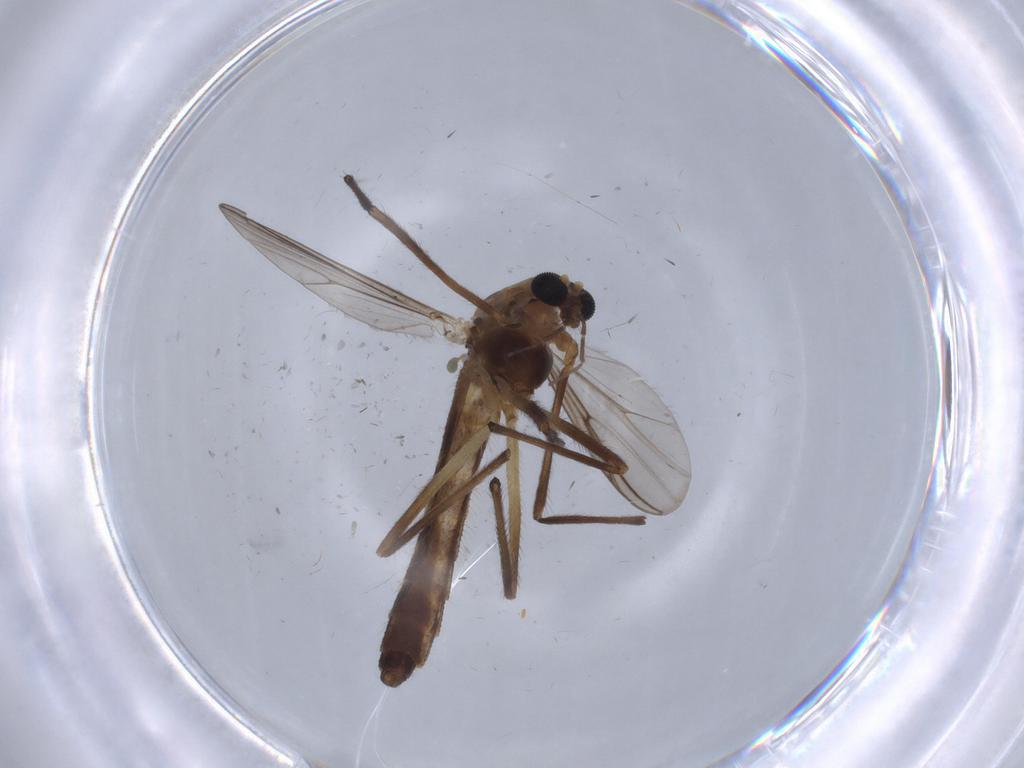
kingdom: Animalia
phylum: Arthropoda
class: Insecta
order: Diptera
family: Chironomidae
